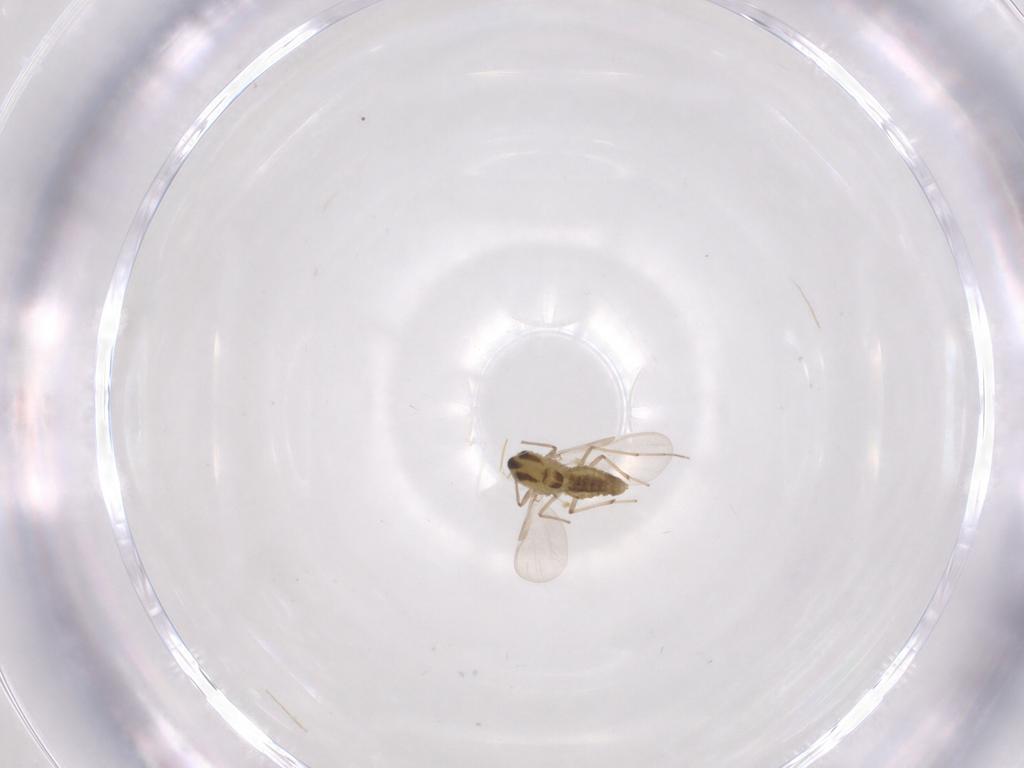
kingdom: Animalia
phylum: Arthropoda
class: Insecta
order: Diptera
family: Chironomidae
